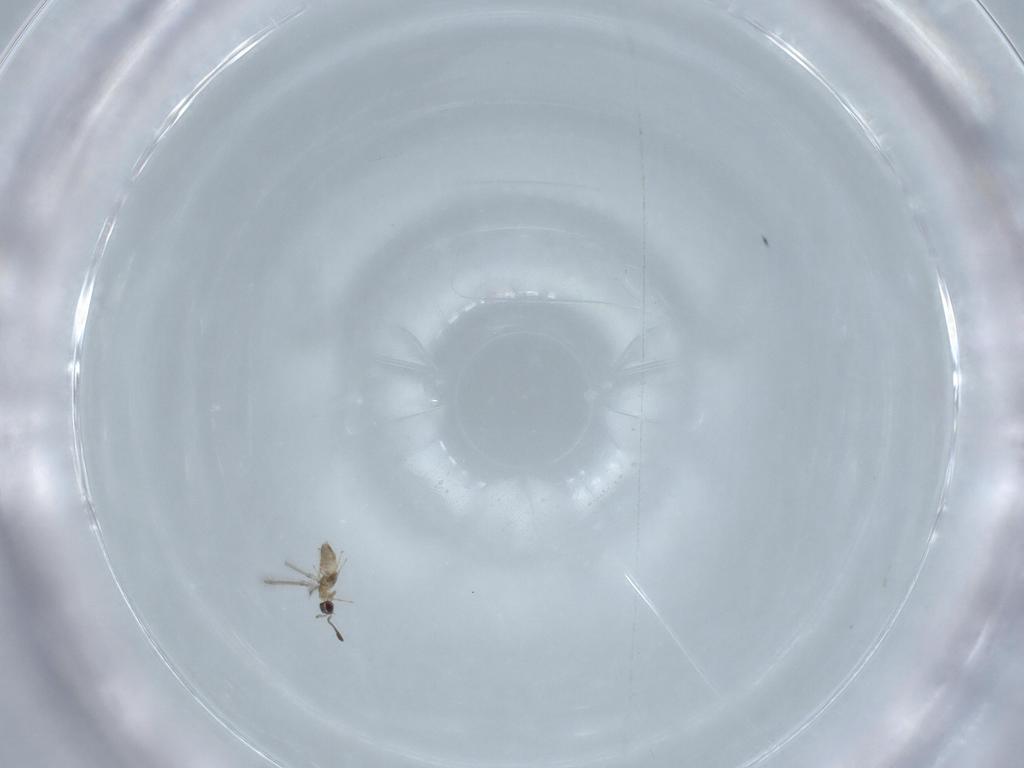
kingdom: Animalia
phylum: Arthropoda
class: Insecta
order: Hymenoptera
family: Mymaridae
